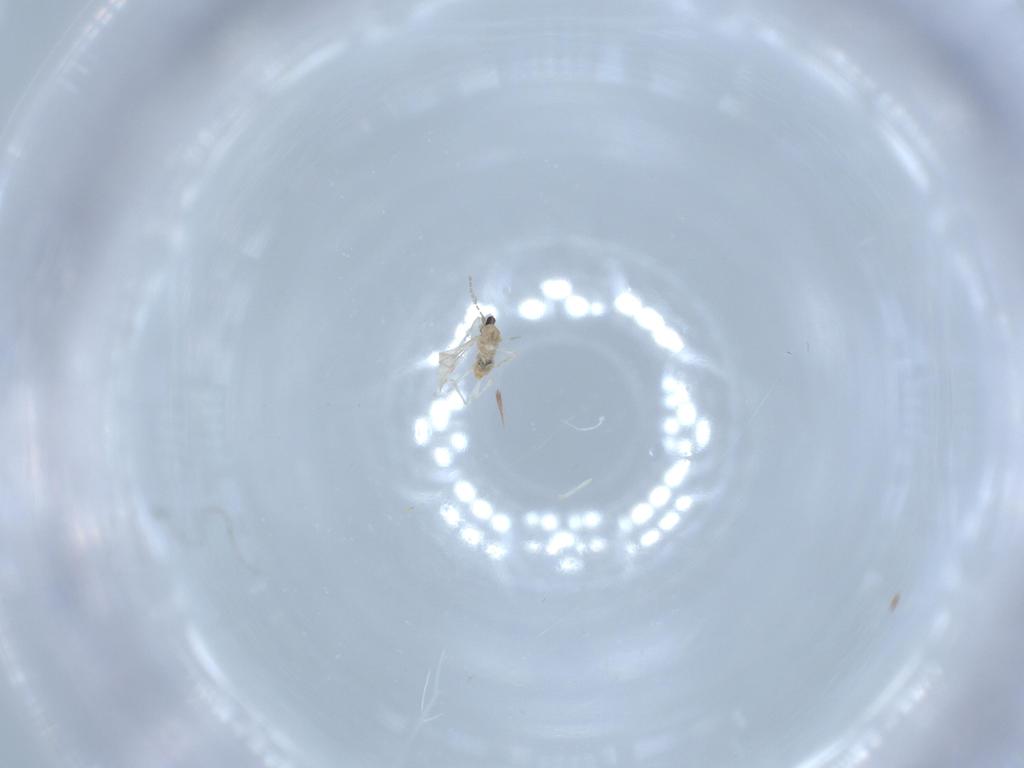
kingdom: Animalia
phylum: Arthropoda
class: Insecta
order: Diptera
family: Cecidomyiidae
